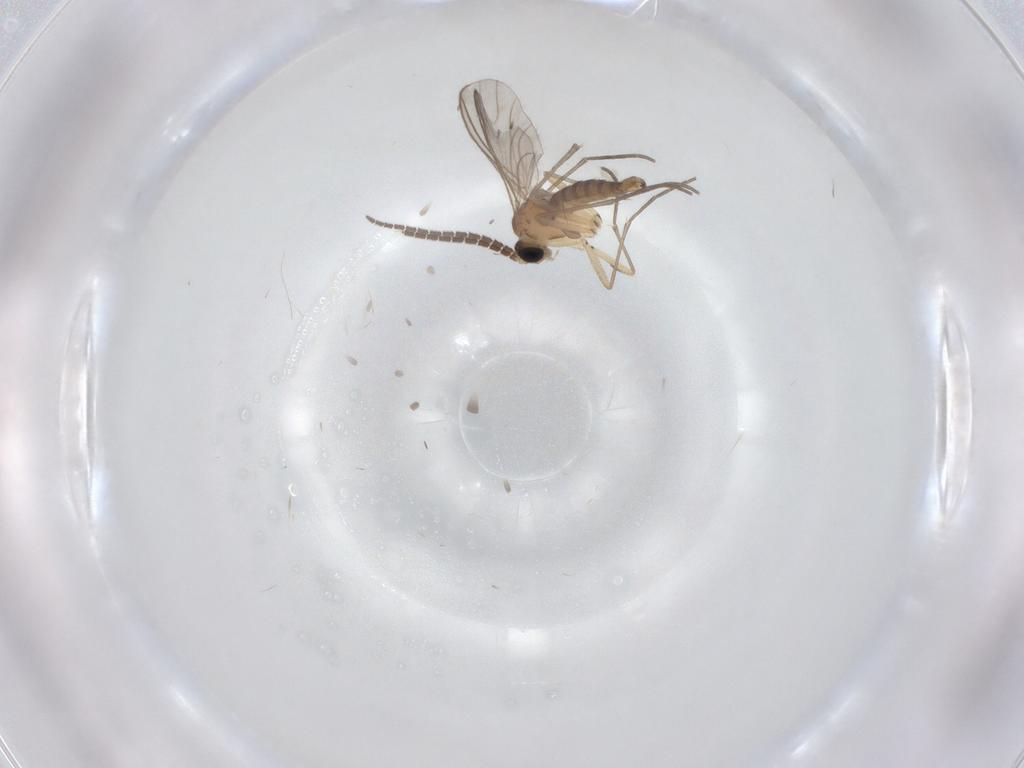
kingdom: Animalia
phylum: Arthropoda
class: Insecta
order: Diptera
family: Sciaridae
